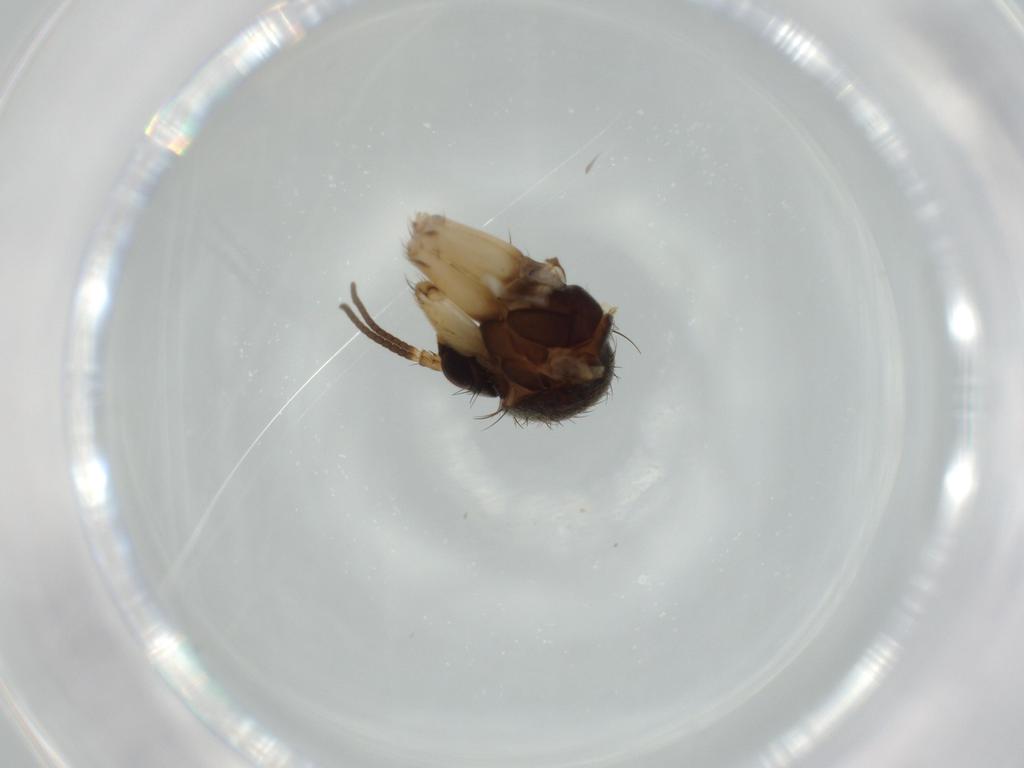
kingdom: Animalia
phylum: Arthropoda
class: Insecta
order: Diptera
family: Mycetophilidae
